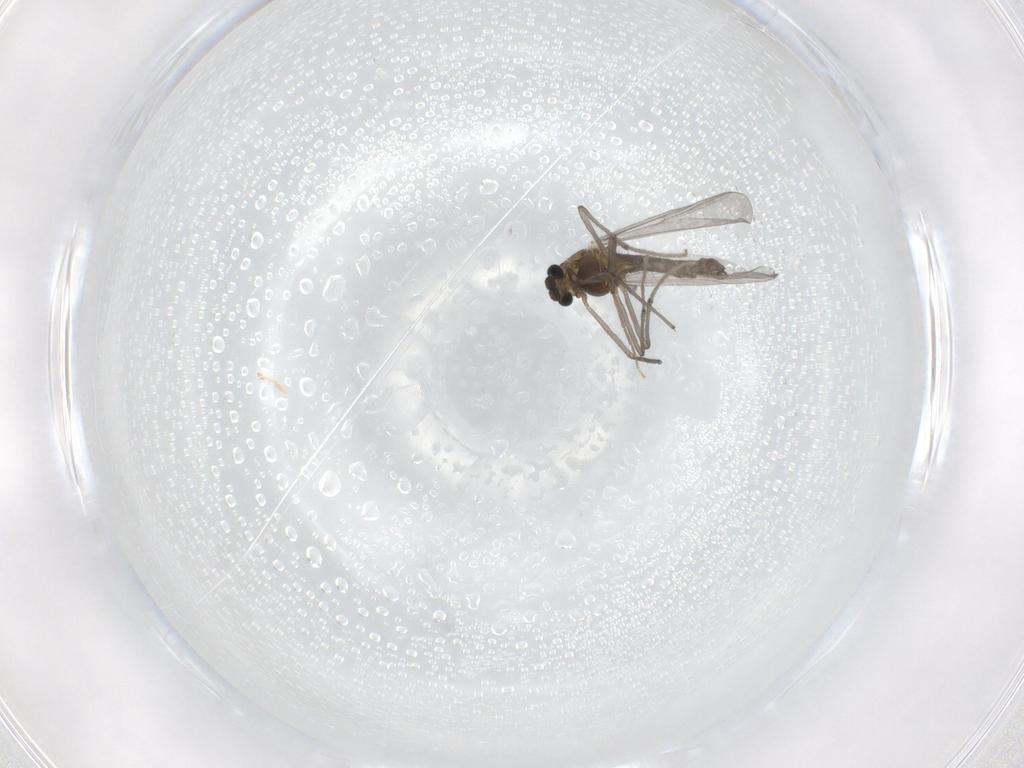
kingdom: Animalia
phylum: Arthropoda
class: Insecta
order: Diptera
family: Chironomidae
